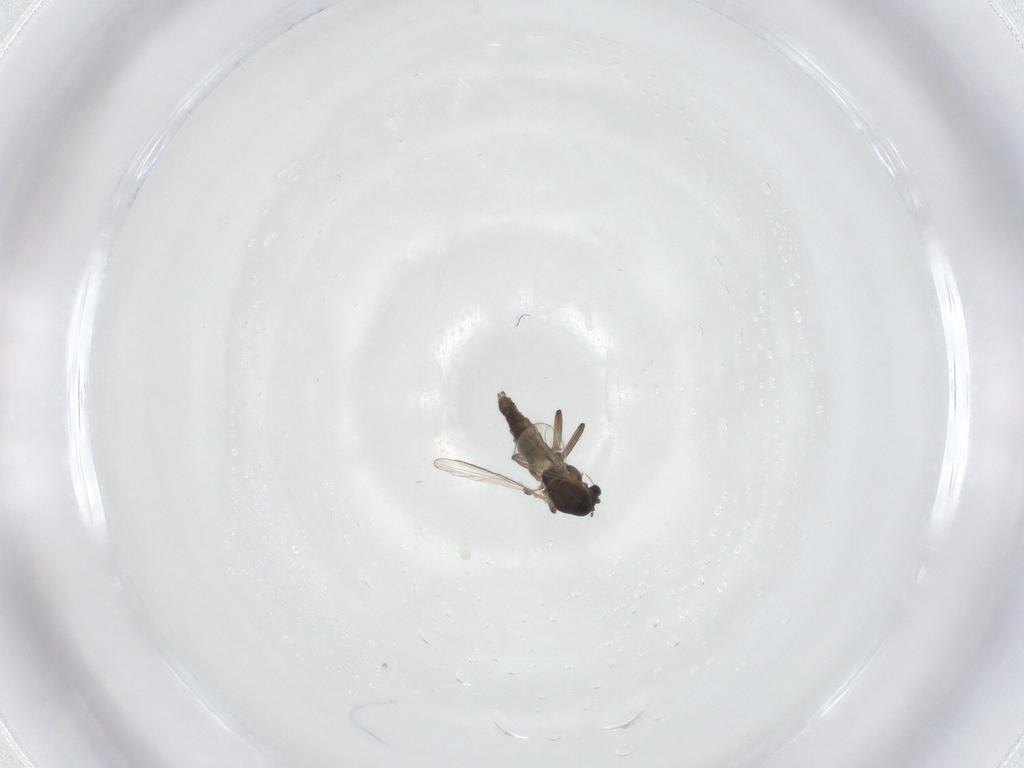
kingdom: Animalia
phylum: Arthropoda
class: Insecta
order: Diptera
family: Chironomidae
